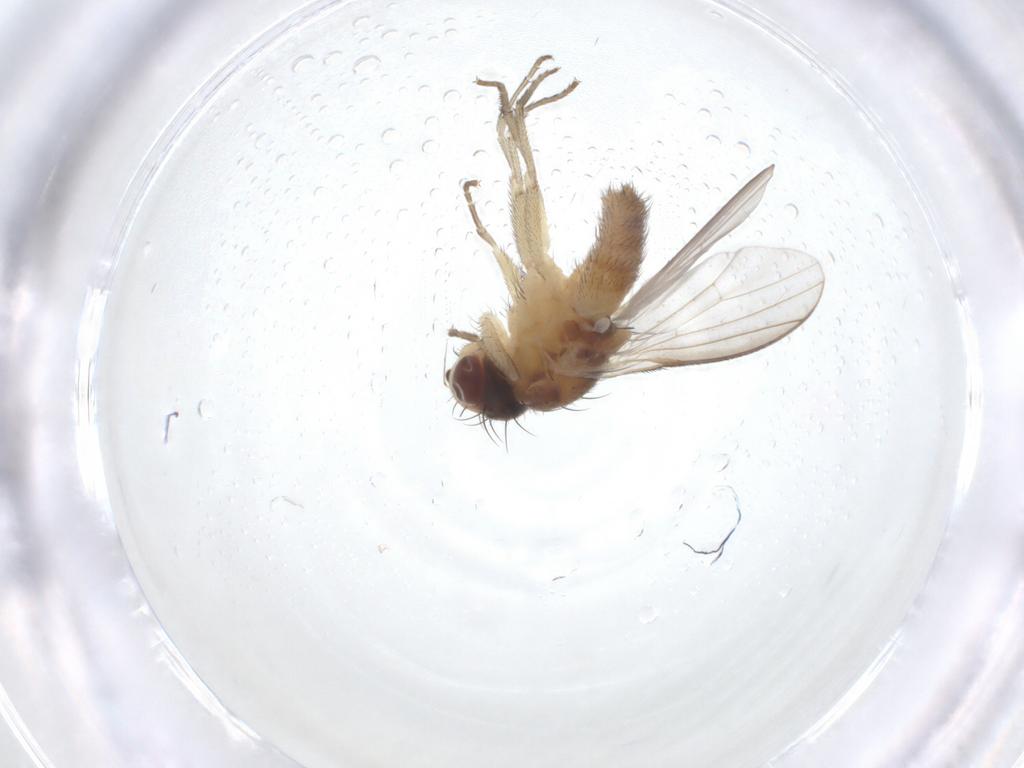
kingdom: Animalia
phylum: Arthropoda
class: Insecta
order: Diptera
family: Heleomyzidae
